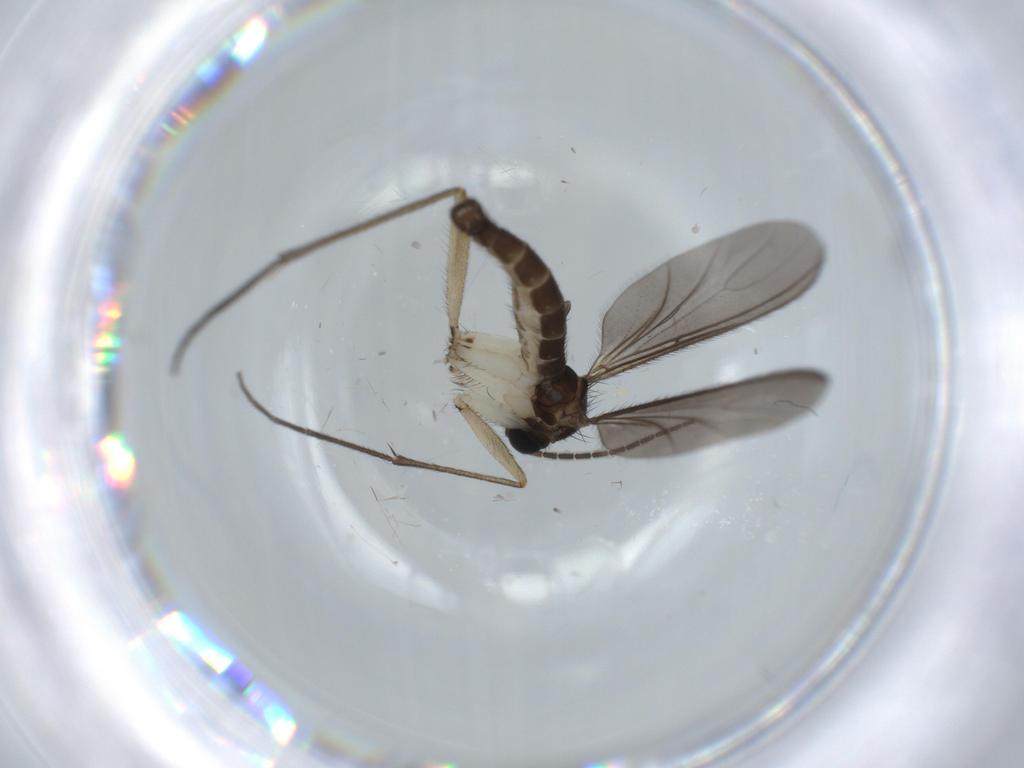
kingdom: Animalia
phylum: Arthropoda
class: Insecta
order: Diptera
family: Sciaridae
